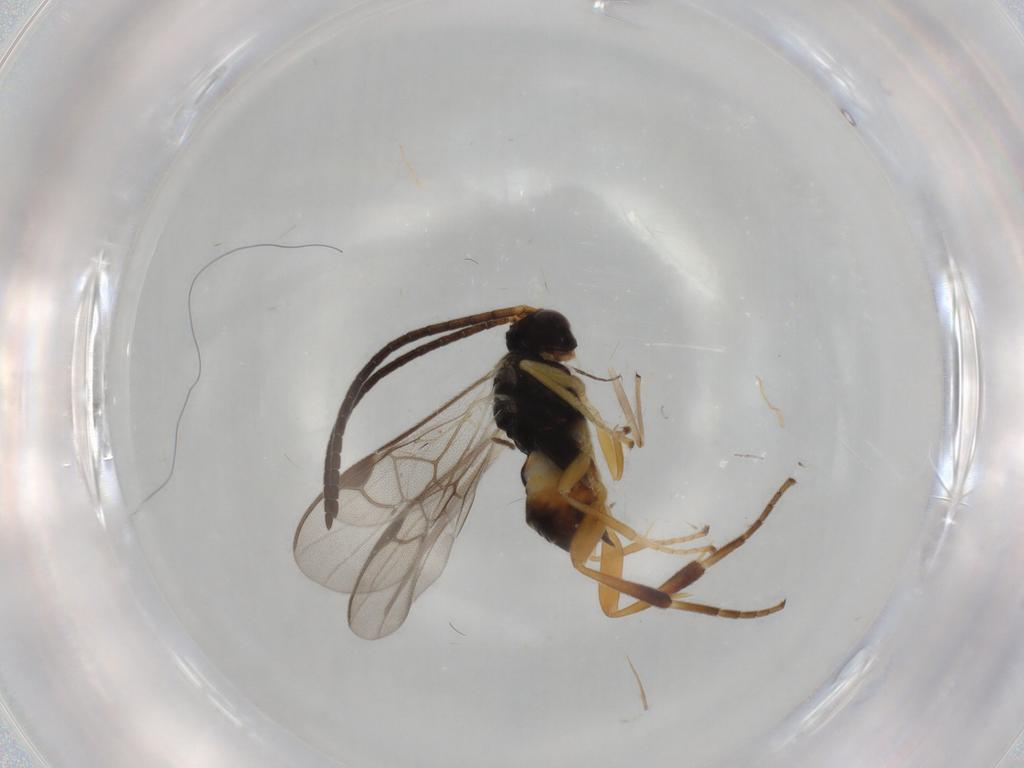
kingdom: Animalia
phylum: Arthropoda
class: Insecta
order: Hymenoptera
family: Braconidae
